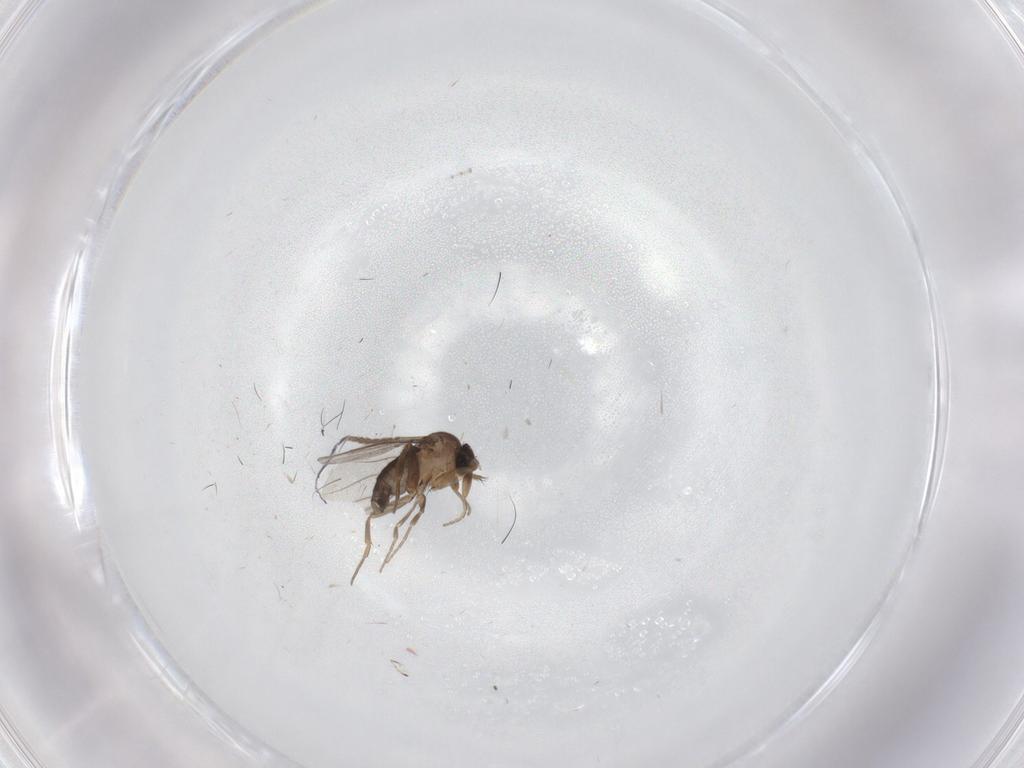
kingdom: Animalia
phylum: Arthropoda
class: Insecta
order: Diptera
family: Phoridae
